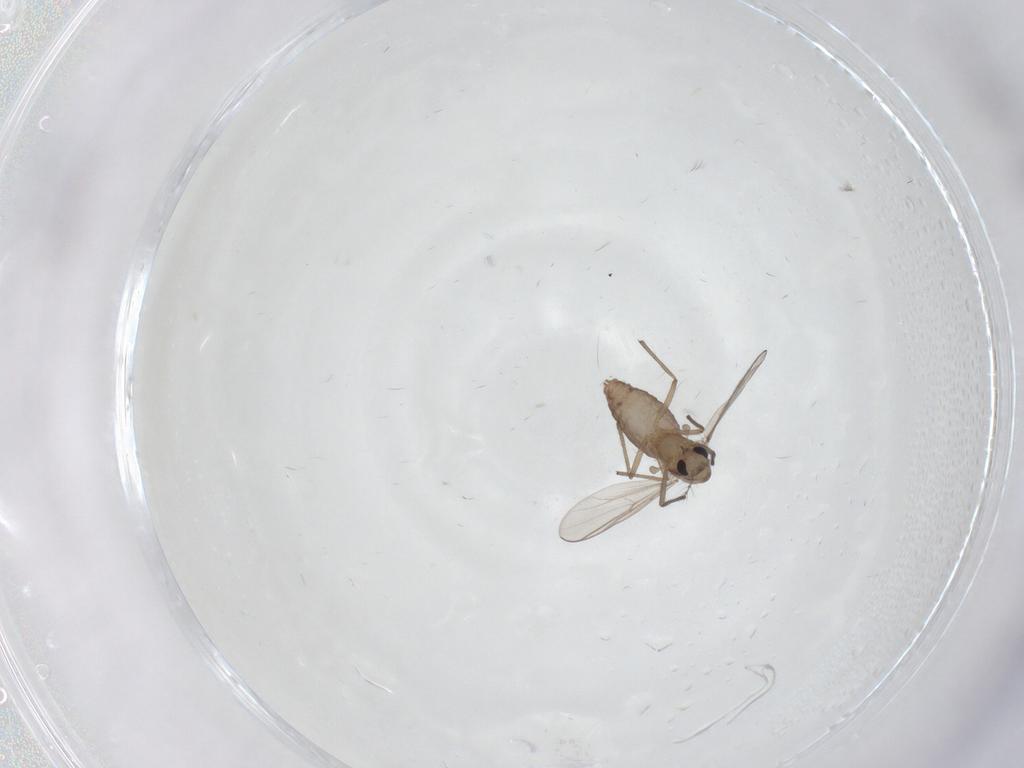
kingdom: Animalia
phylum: Arthropoda
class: Insecta
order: Diptera
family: Chironomidae
